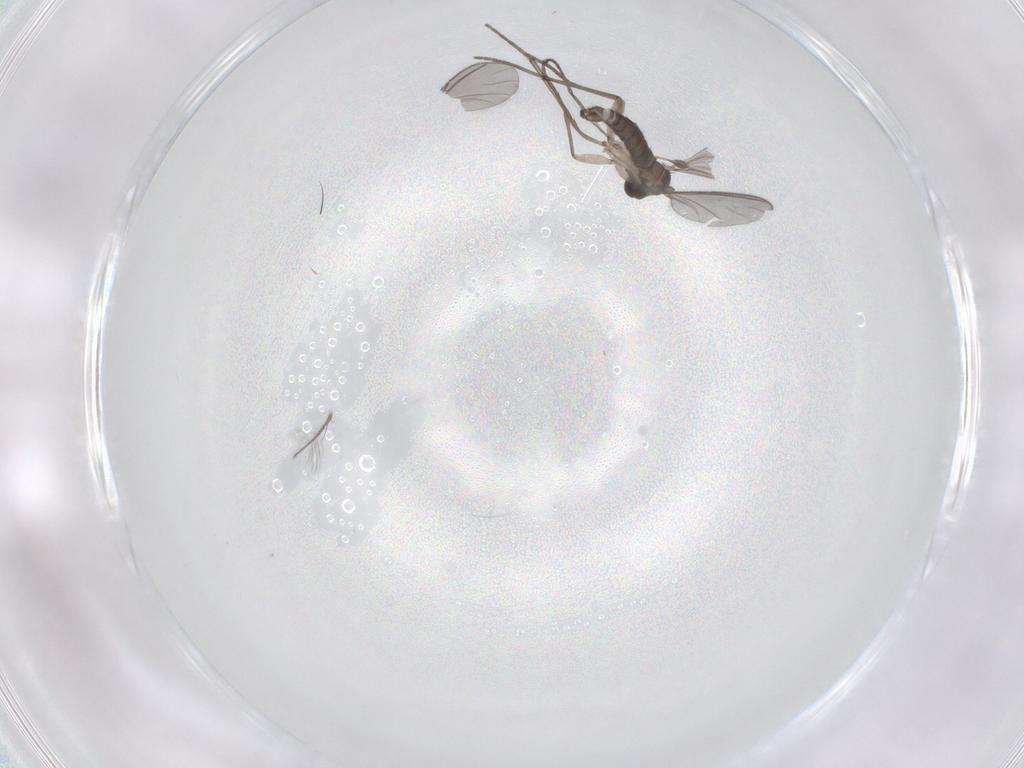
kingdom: Animalia
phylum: Arthropoda
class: Insecta
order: Diptera
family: Sciaridae
